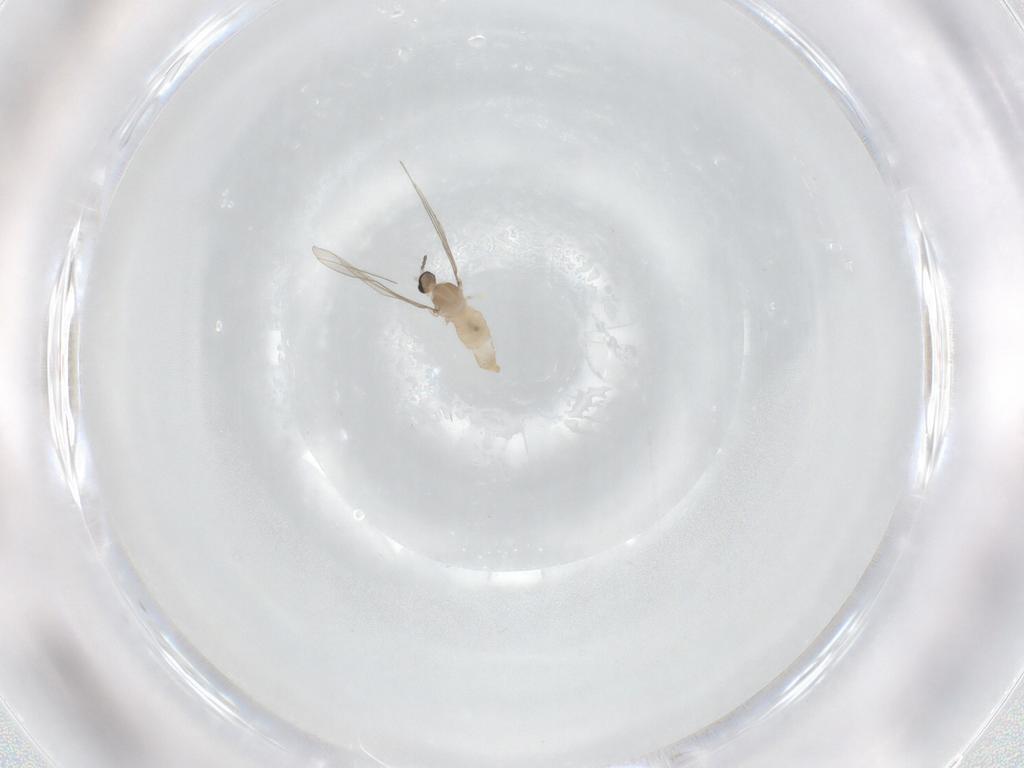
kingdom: Animalia
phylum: Arthropoda
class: Insecta
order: Diptera
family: Cecidomyiidae
